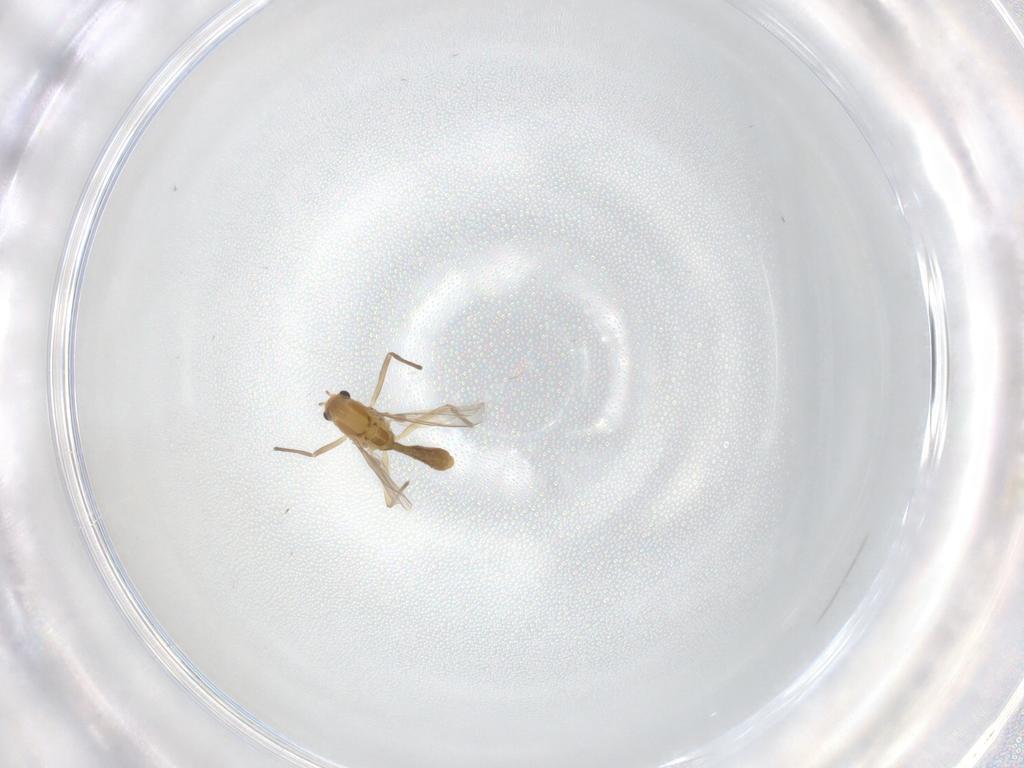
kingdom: Animalia
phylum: Arthropoda
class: Insecta
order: Diptera
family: Chironomidae
